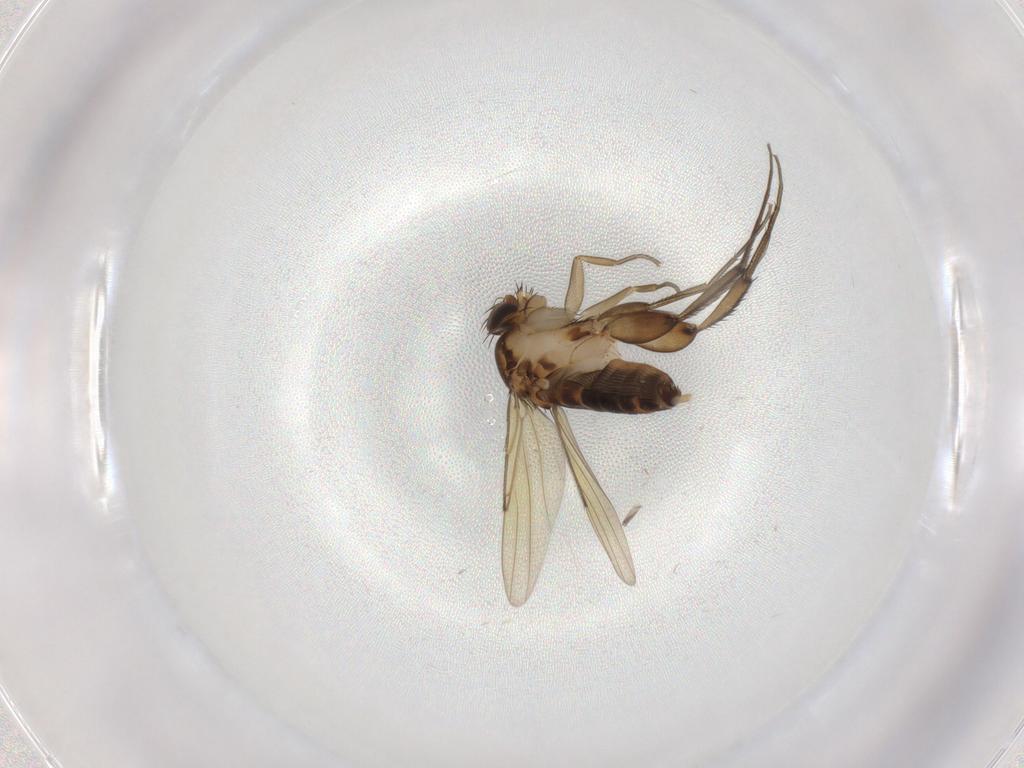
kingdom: Animalia
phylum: Arthropoda
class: Insecta
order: Diptera
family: Phoridae
